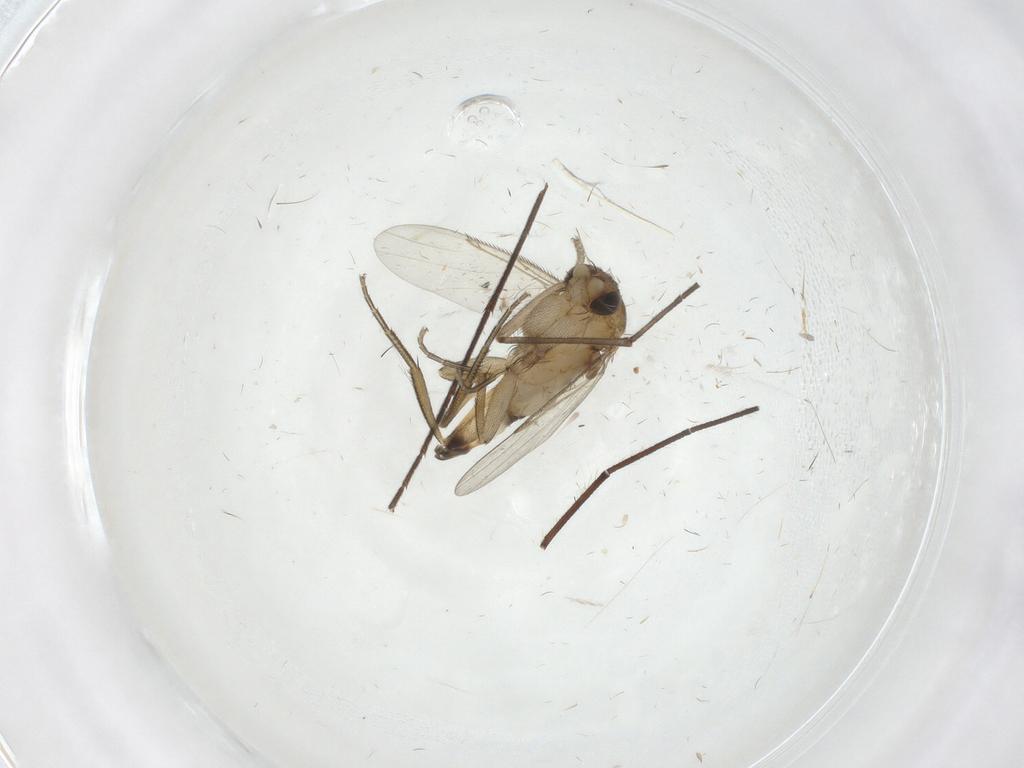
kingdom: Animalia
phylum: Arthropoda
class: Insecta
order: Diptera
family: Phoridae
